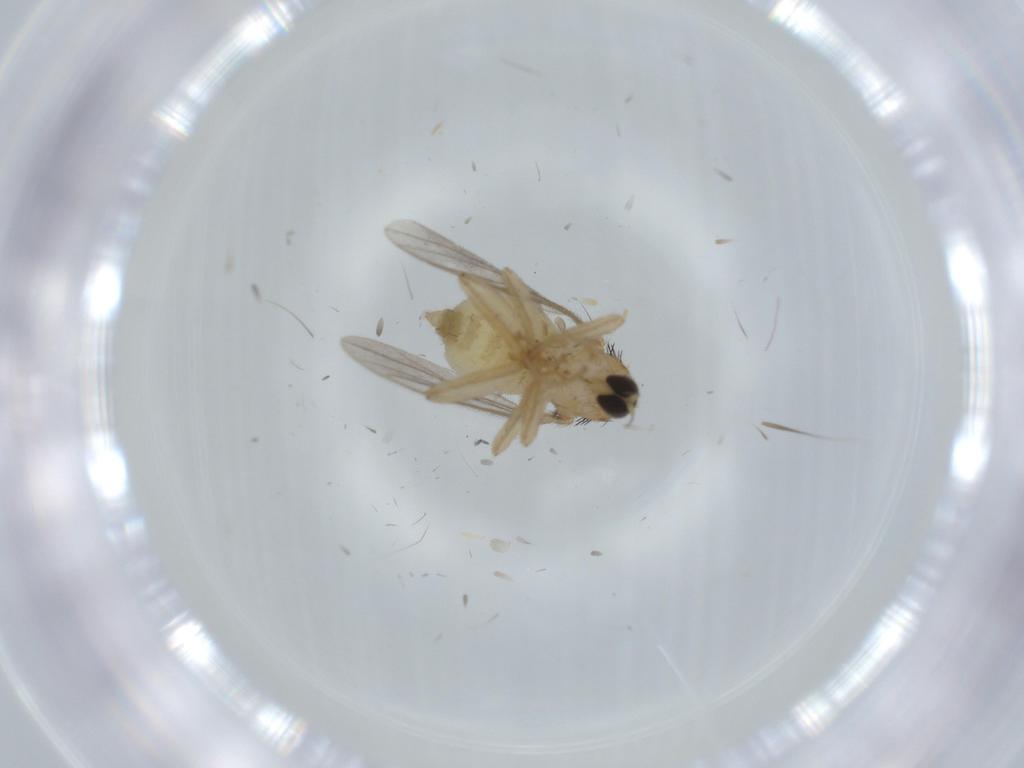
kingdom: Animalia
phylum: Arthropoda
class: Insecta
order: Diptera
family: Hybotidae
